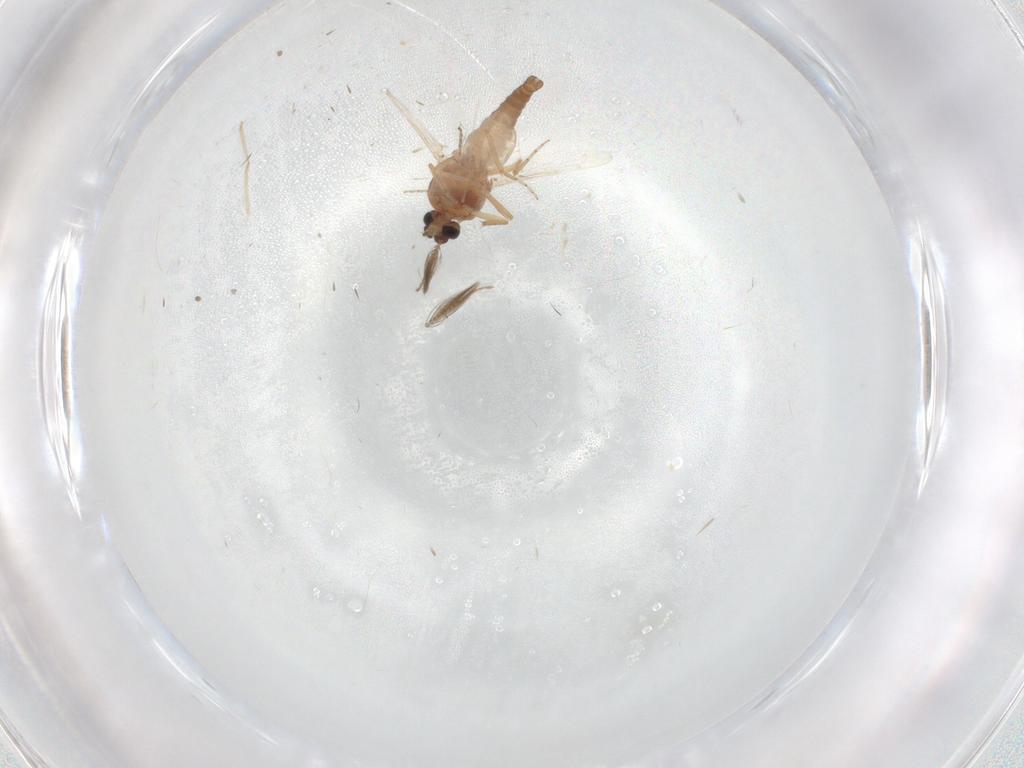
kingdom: Animalia
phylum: Arthropoda
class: Insecta
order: Diptera
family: Ceratopogonidae
